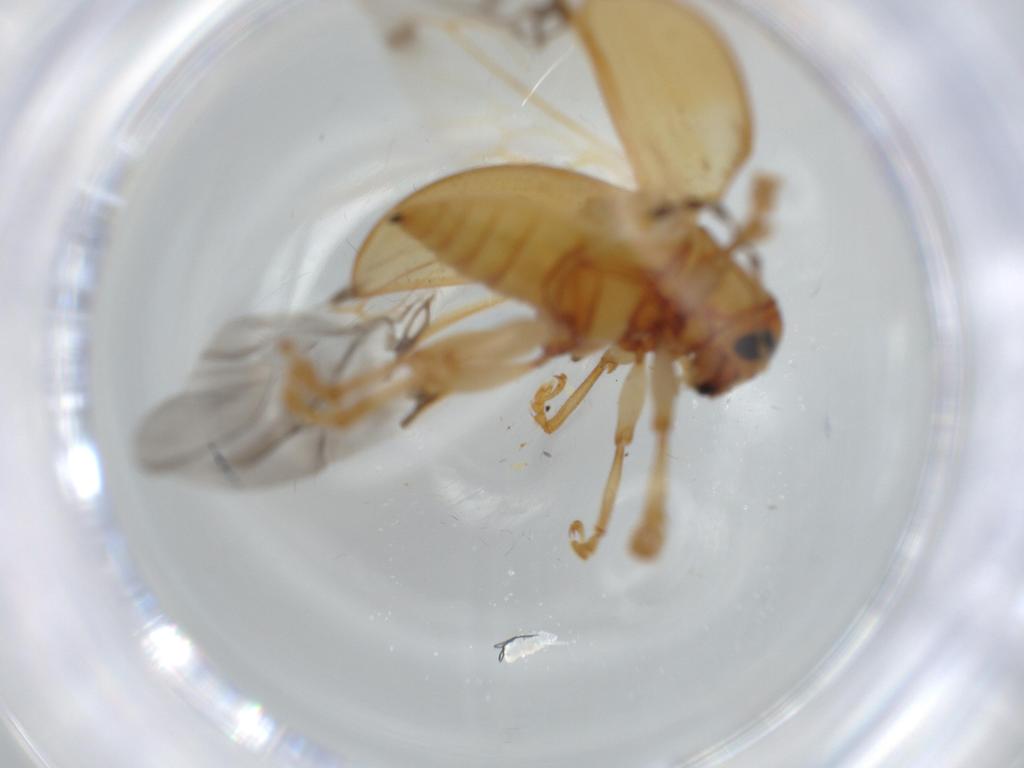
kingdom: Animalia
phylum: Arthropoda
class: Insecta
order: Coleoptera
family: Chrysomelidae
